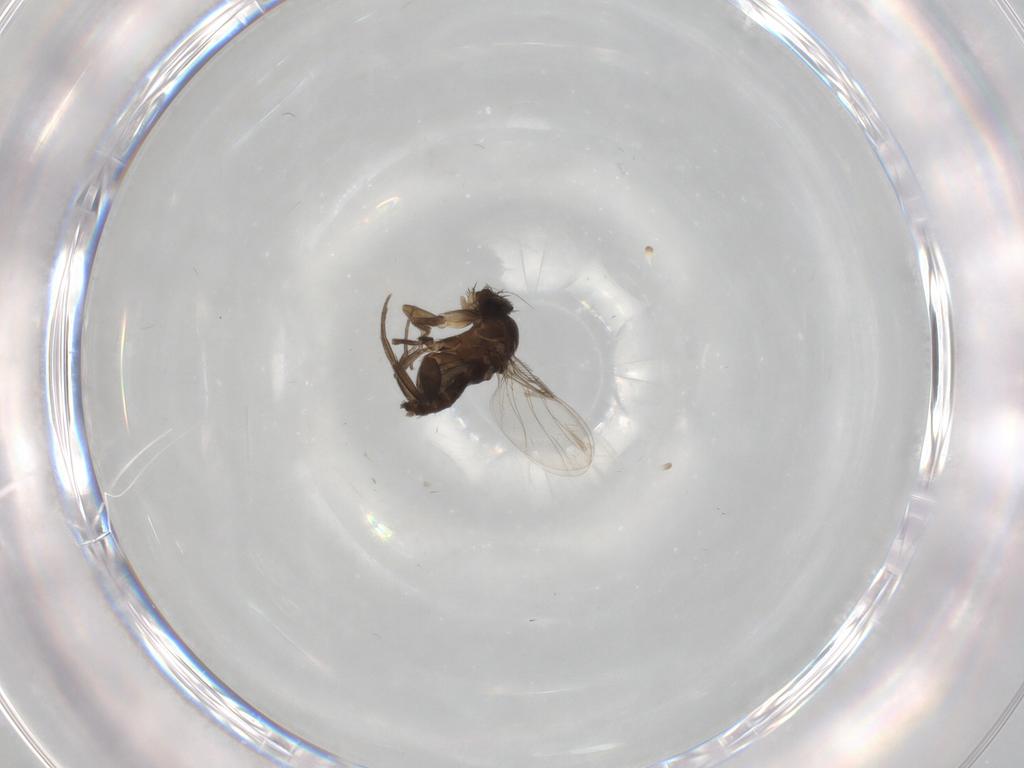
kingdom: Animalia
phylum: Arthropoda
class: Insecta
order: Diptera
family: Phoridae
